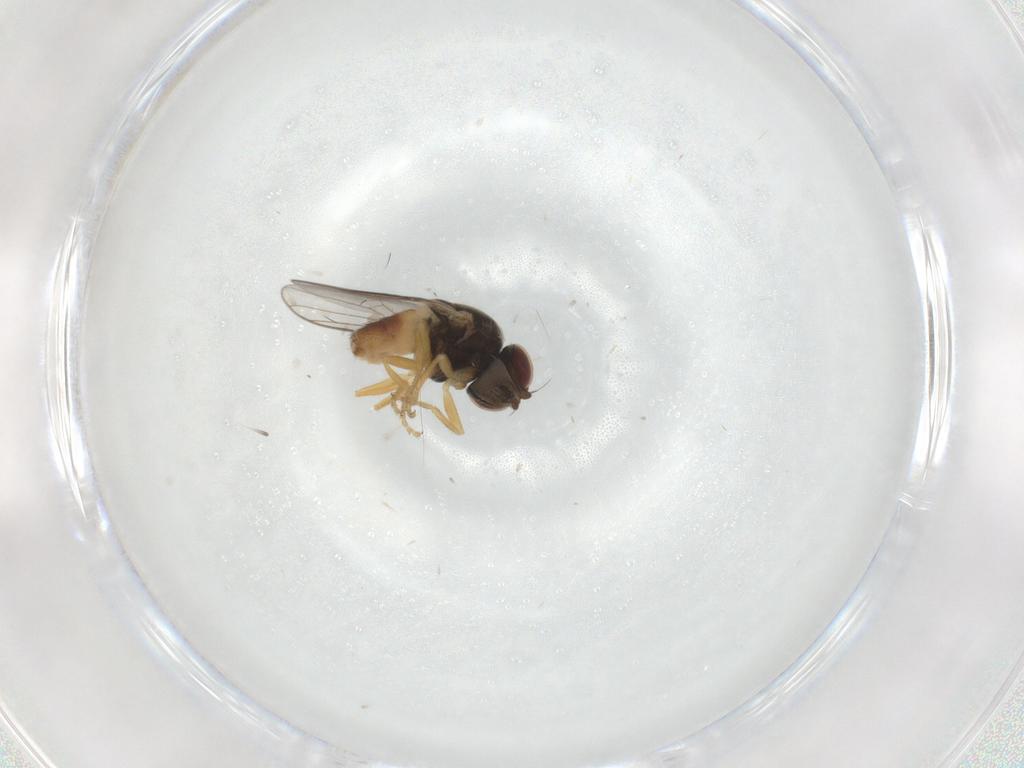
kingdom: Animalia
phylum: Arthropoda
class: Insecta
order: Diptera
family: Chloropidae
